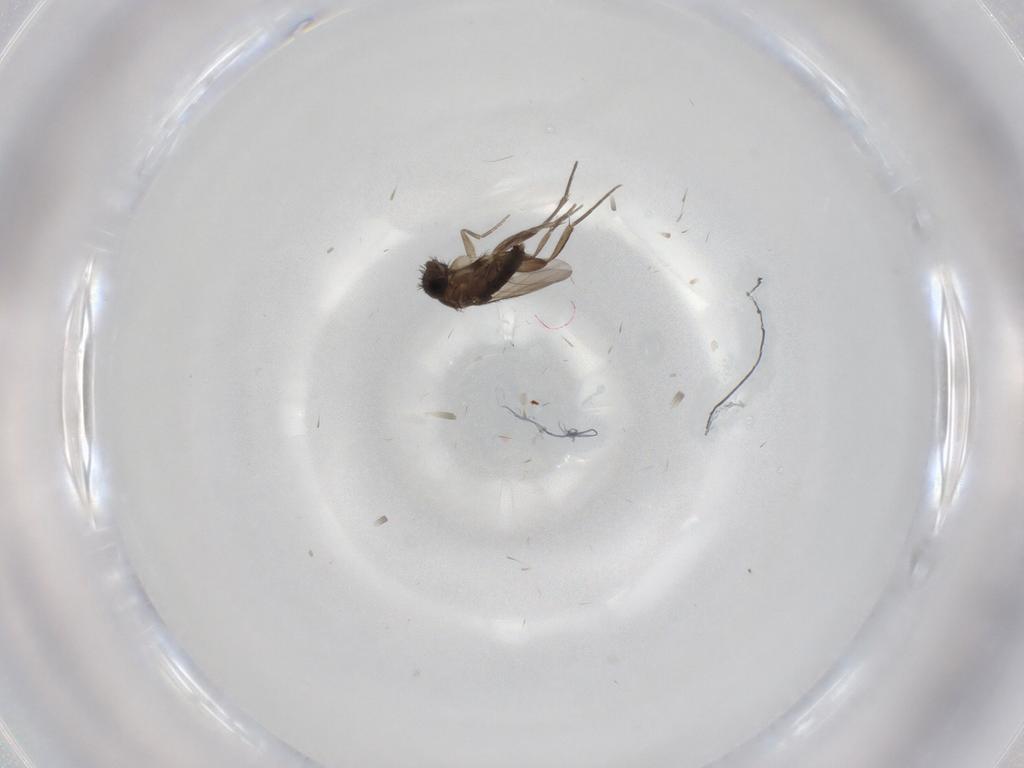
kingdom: Animalia
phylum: Arthropoda
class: Insecta
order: Diptera
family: Phoridae
